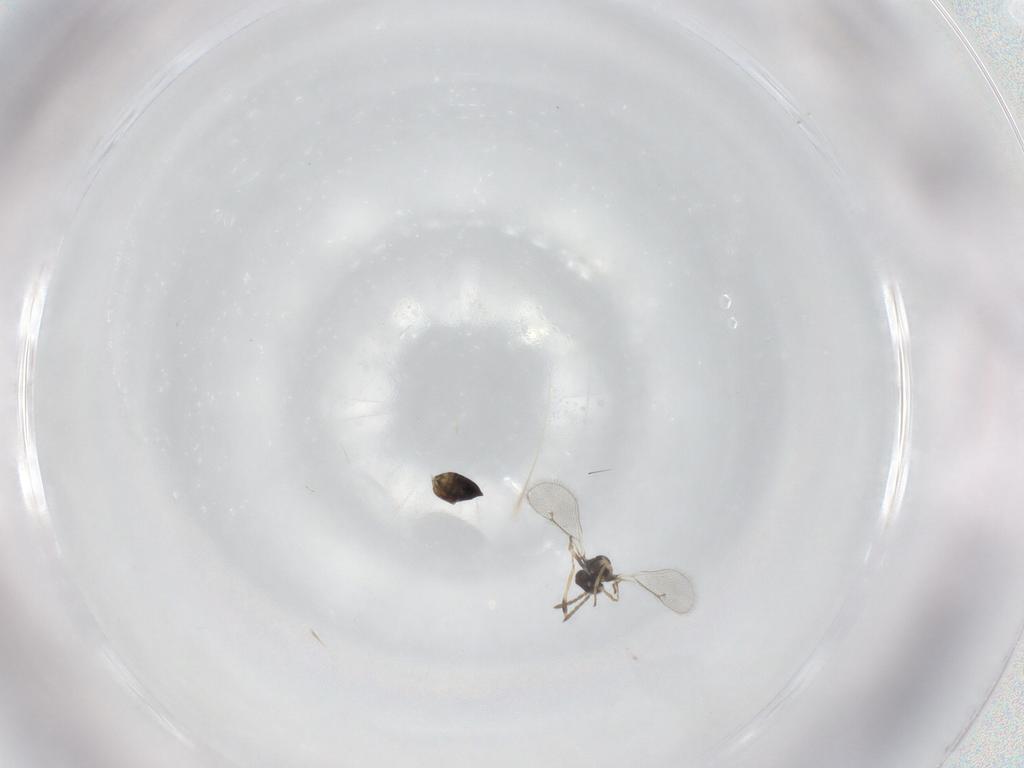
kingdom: Animalia
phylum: Arthropoda
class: Insecta
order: Hymenoptera
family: Eulophidae
